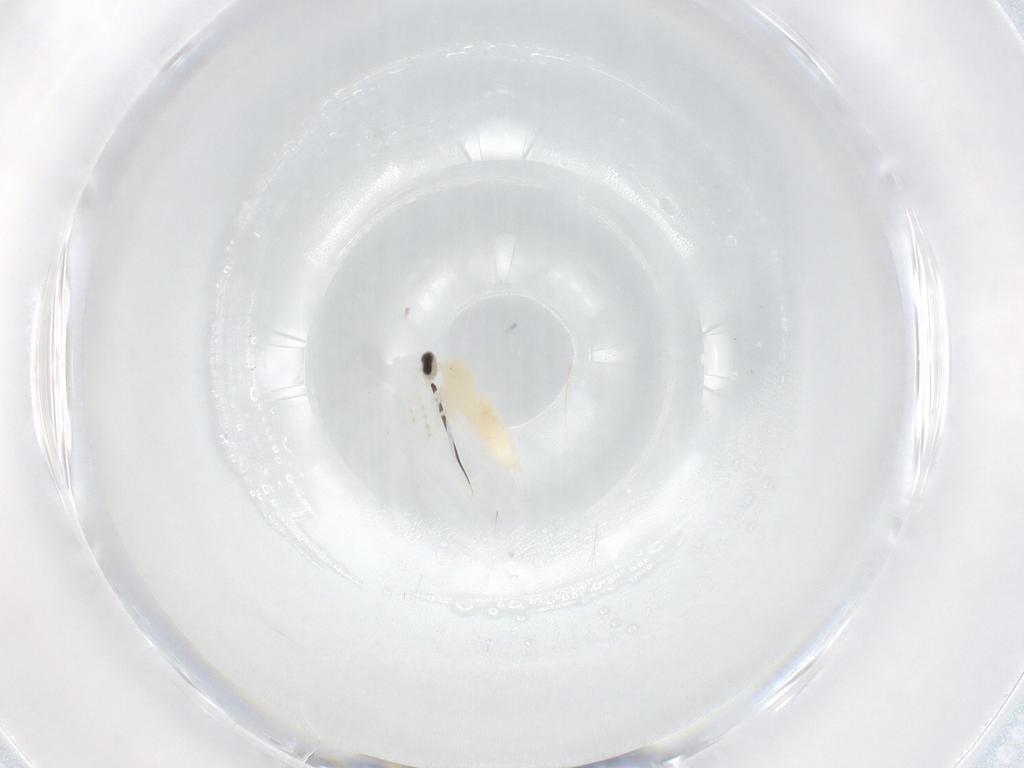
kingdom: Animalia
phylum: Arthropoda
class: Insecta
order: Diptera
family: Cecidomyiidae
